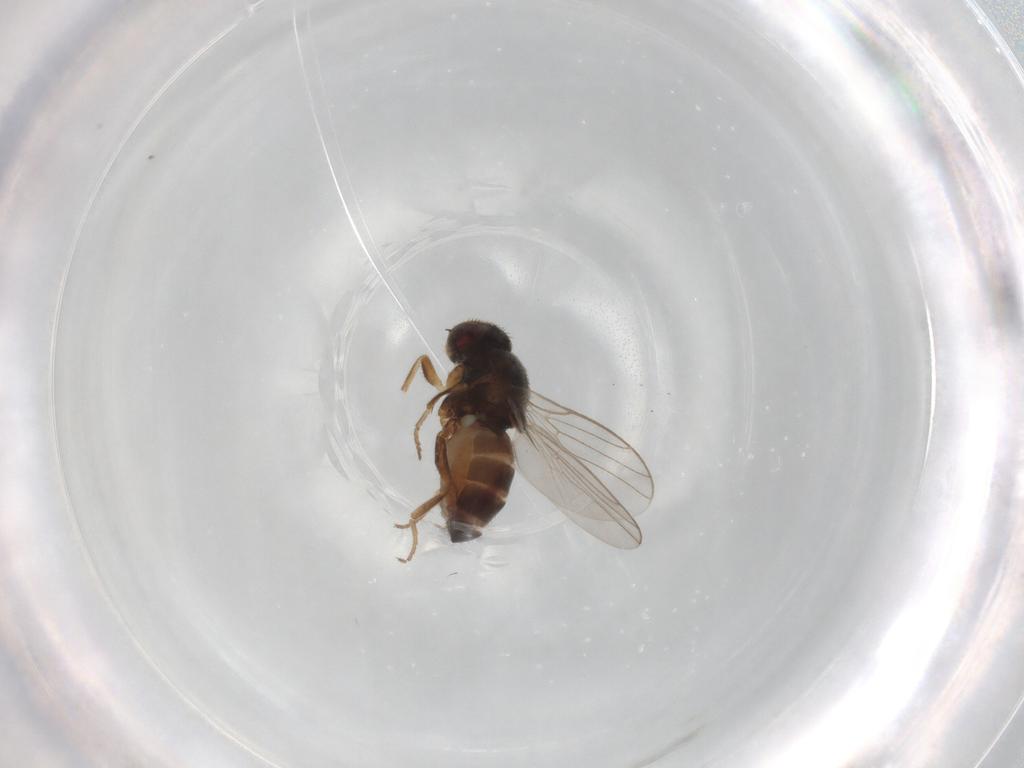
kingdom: Animalia
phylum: Arthropoda
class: Insecta
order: Diptera
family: Chloropidae
